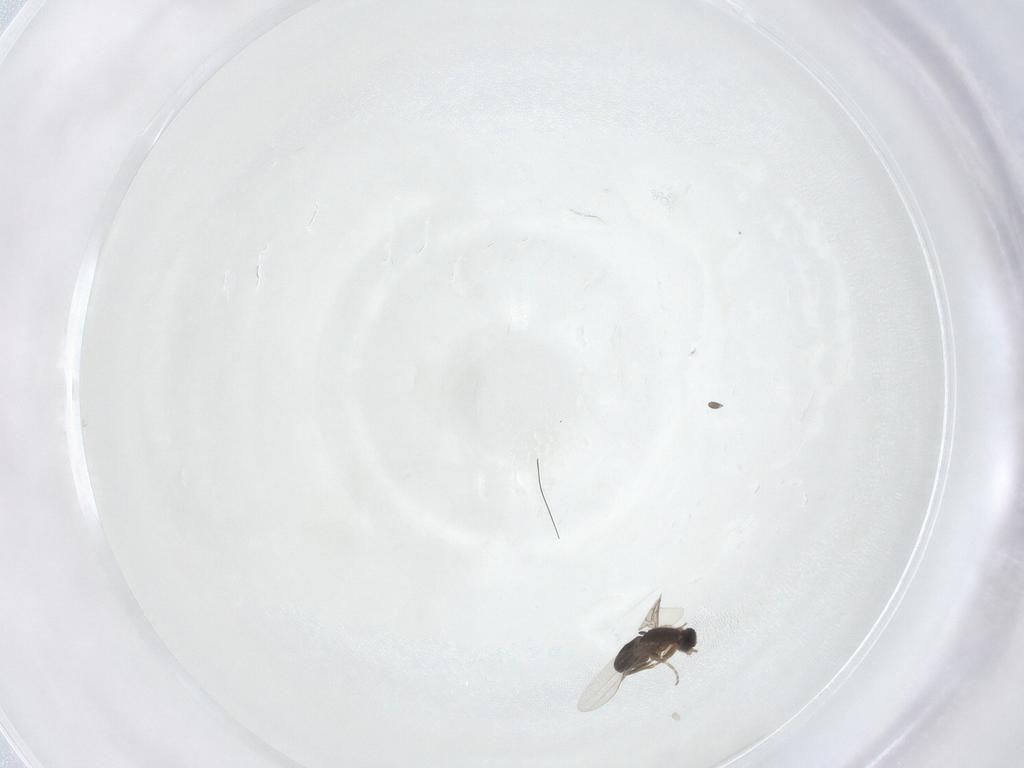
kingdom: Animalia
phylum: Arthropoda
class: Insecta
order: Diptera
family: Phoridae
